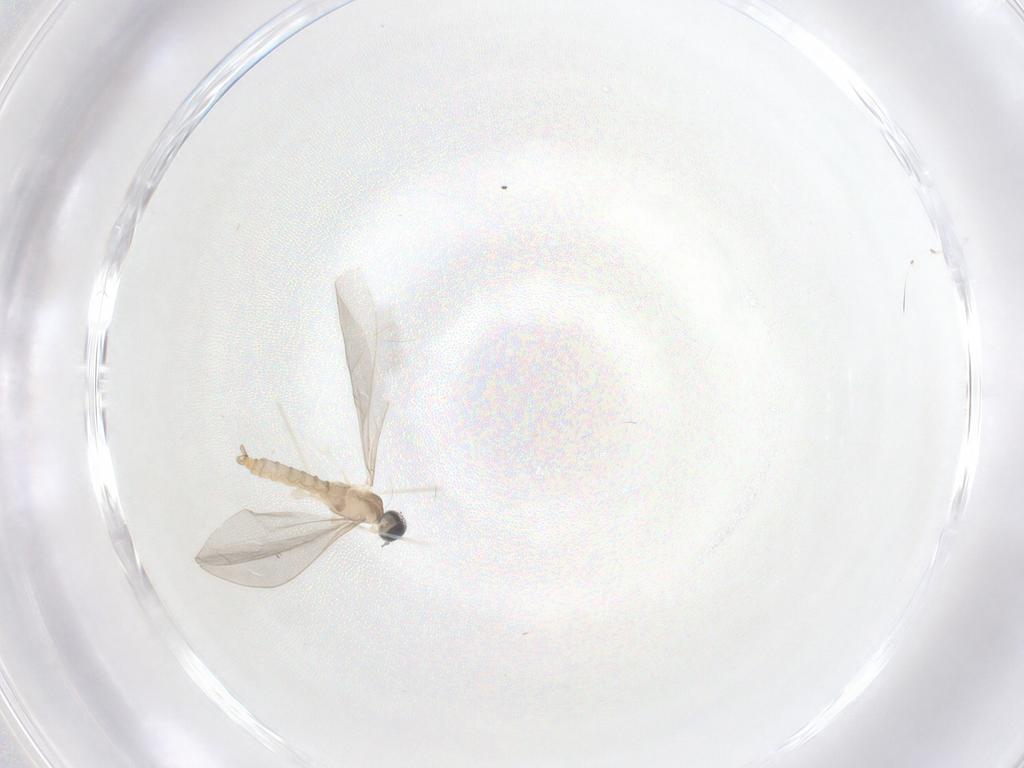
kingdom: Animalia
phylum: Arthropoda
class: Insecta
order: Diptera
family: Cecidomyiidae
